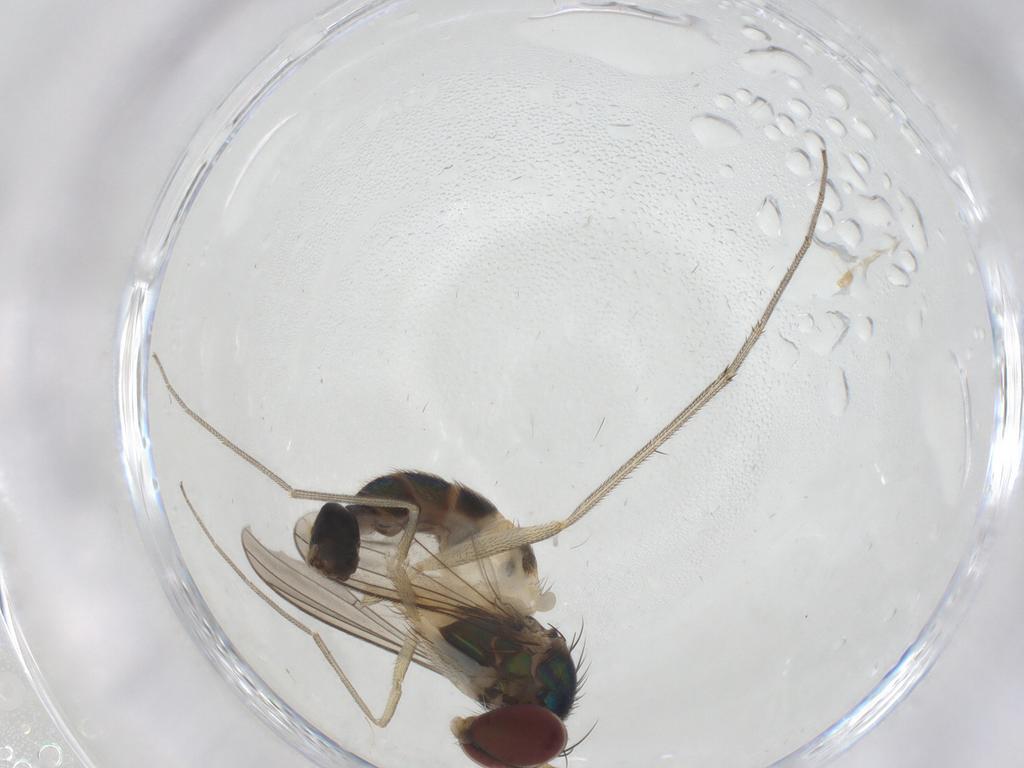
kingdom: Animalia
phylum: Arthropoda
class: Insecta
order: Diptera
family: Dolichopodidae
